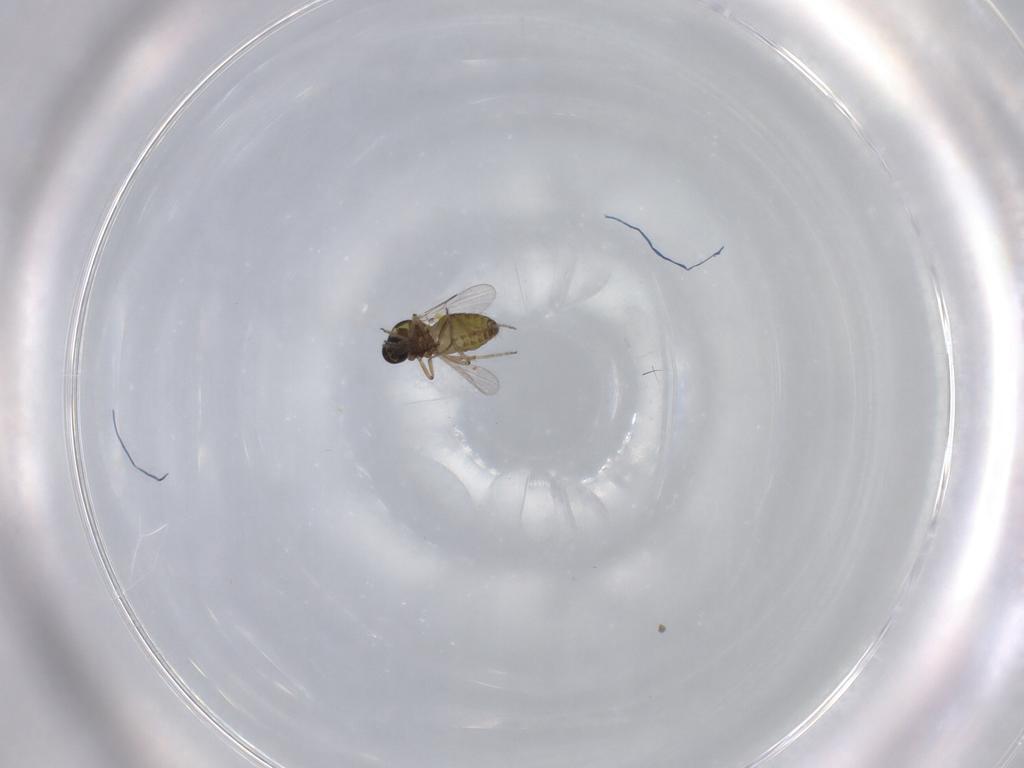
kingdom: Animalia
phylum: Arthropoda
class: Insecta
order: Diptera
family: Ceratopogonidae
